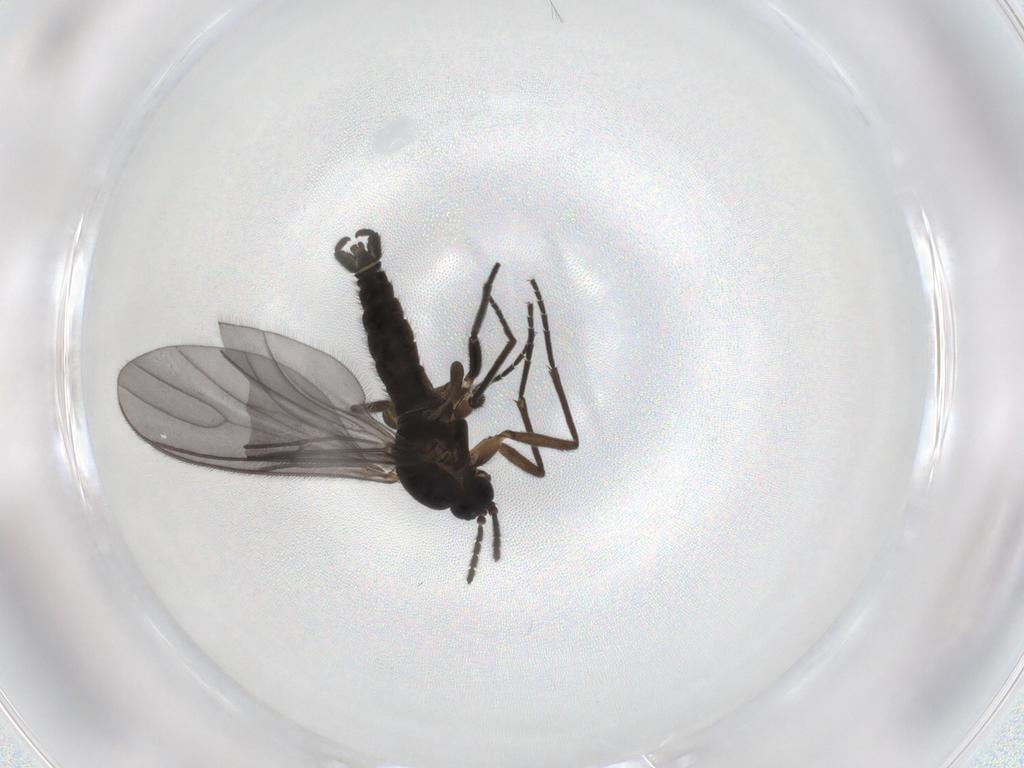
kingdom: Animalia
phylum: Arthropoda
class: Insecta
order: Diptera
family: Sciaridae
